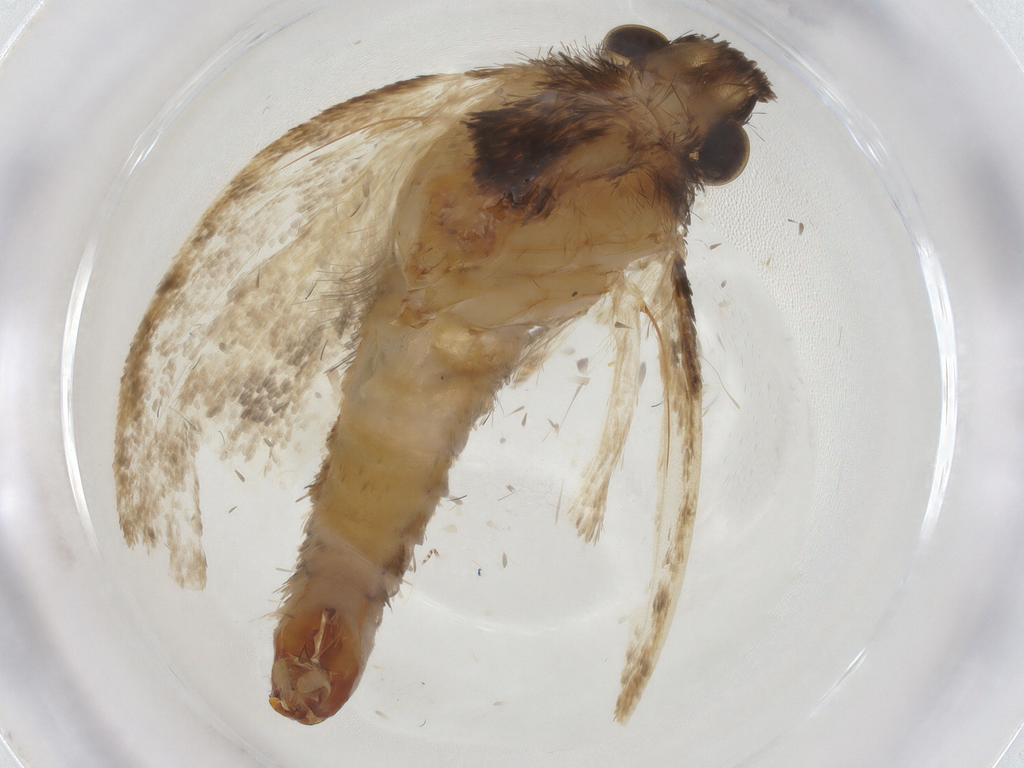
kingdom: Animalia
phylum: Arthropoda
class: Insecta
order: Lepidoptera
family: Tineidae
